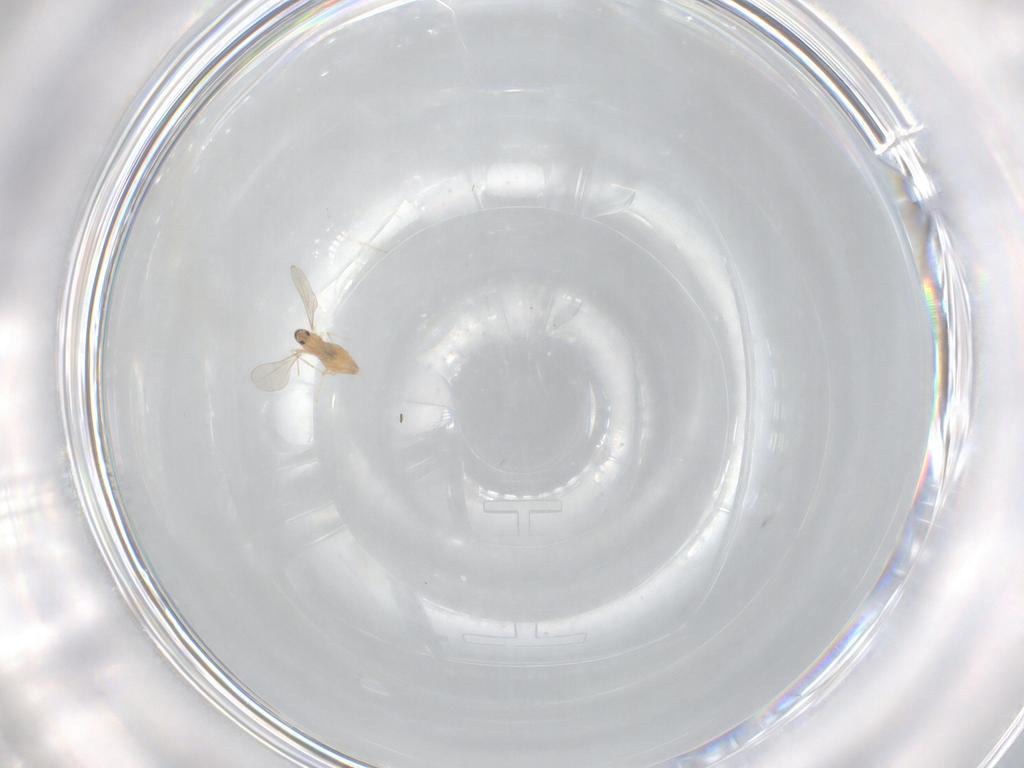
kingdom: Animalia
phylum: Arthropoda
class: Insecta
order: Diptera
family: Cecidomyiidae
